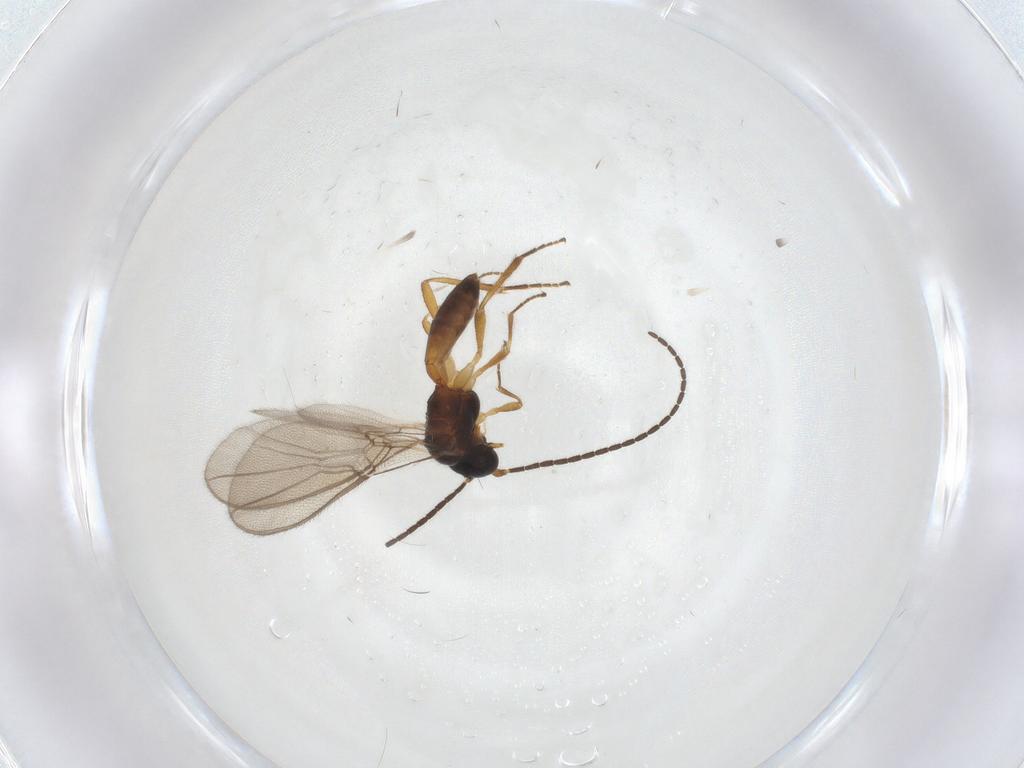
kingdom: Animalia
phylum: Arthropoda
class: Insecta
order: Hymenoptera
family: Braconidae
